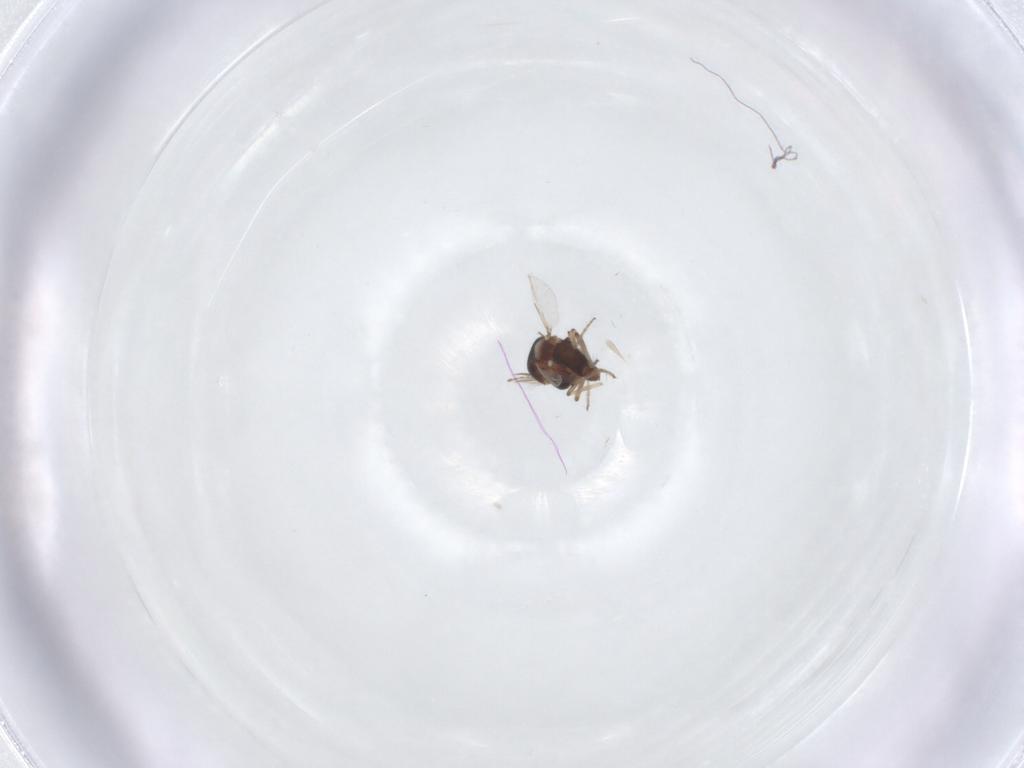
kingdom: Animalia
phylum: Arthropoda
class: Insecta
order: Diptera
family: Ceratopogonidae
